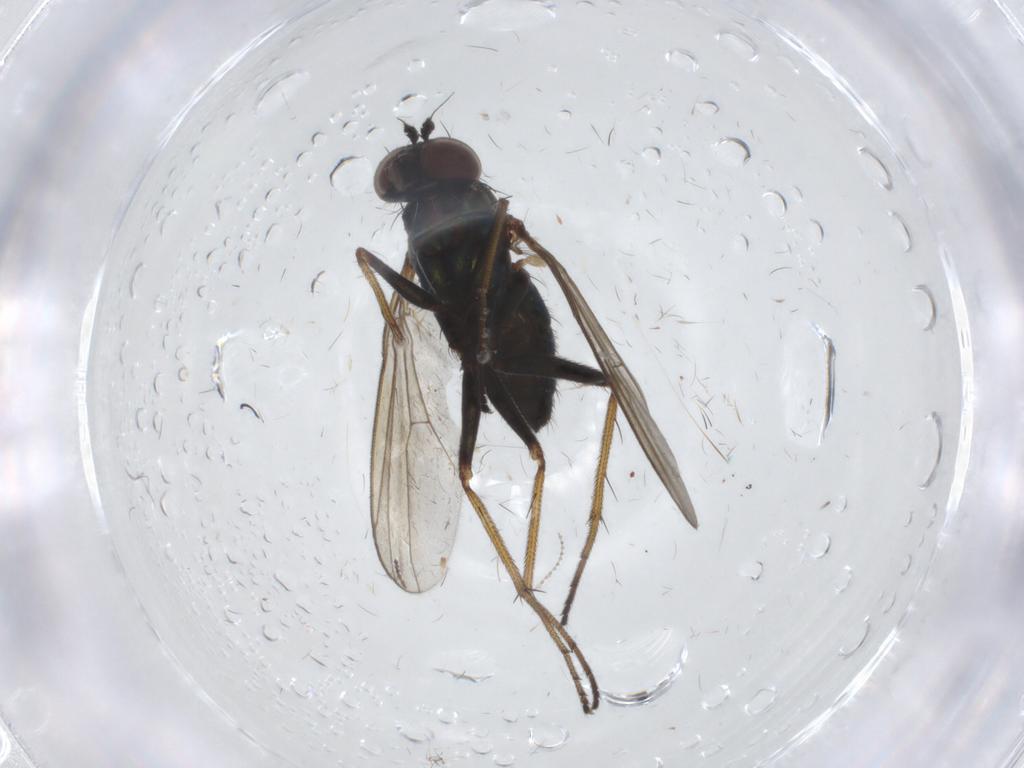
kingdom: Animalia
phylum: Arthropoda
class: Insecta
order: Diptera
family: Dolichopodidae
